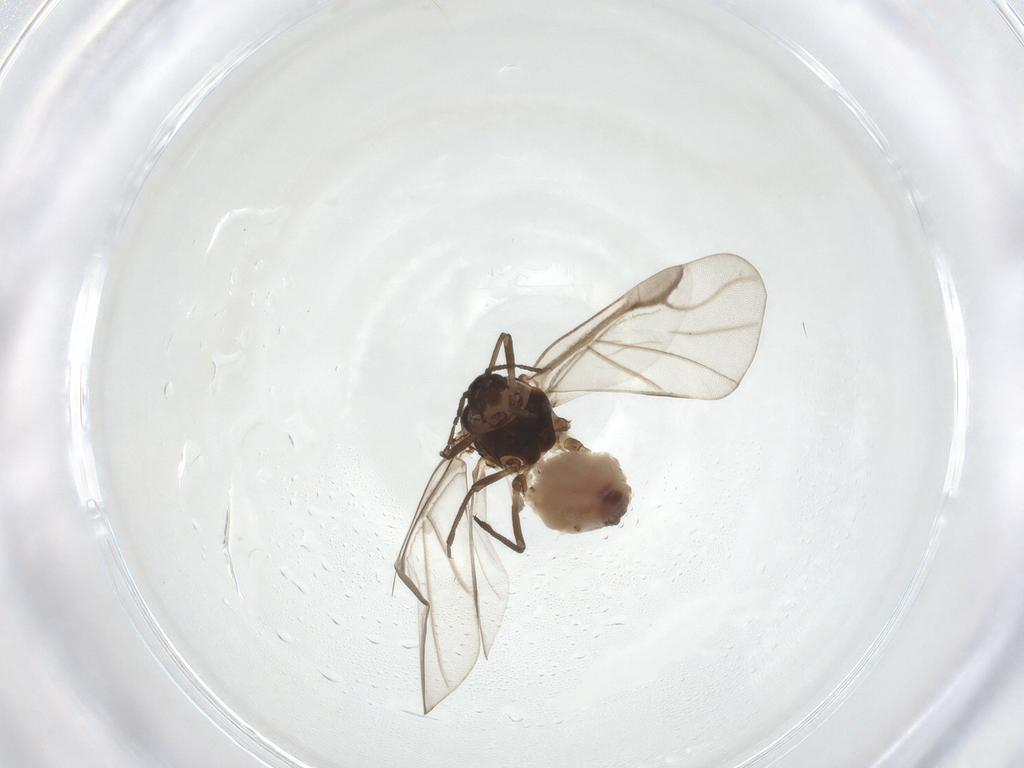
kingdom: Animalia
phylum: Arthropoda
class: Insecta
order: Hemiptera
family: Aphididae
